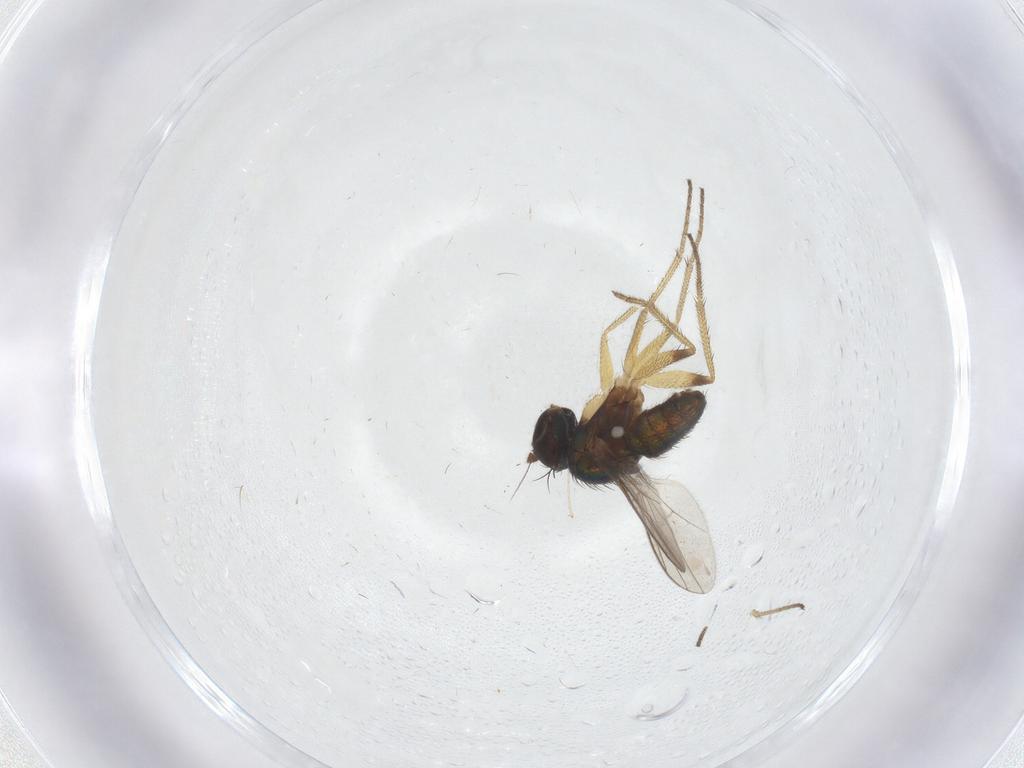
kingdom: Animalia
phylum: Arthropoda
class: Insecta
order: Diptera
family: Dolichopodidae
